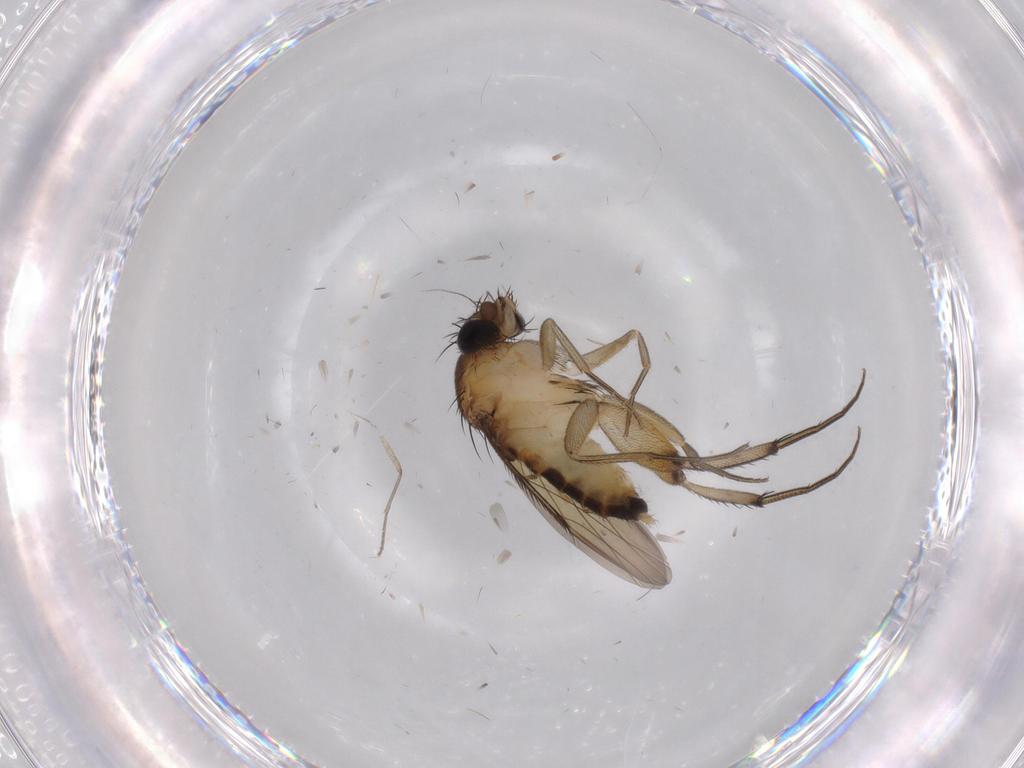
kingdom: Animalia
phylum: Arthropoda
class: Insecta
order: Diptera
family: Phoridae
